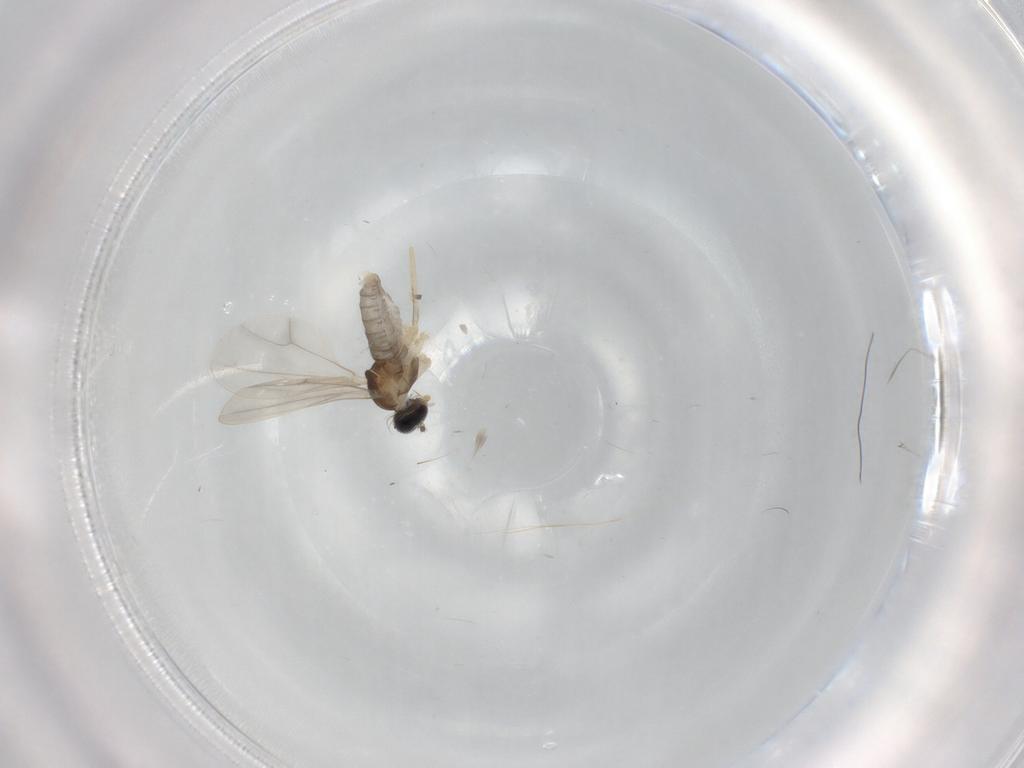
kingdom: Animalia
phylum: Arthropoda
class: Insecta
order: Diptera
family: Cecidomyiidae
